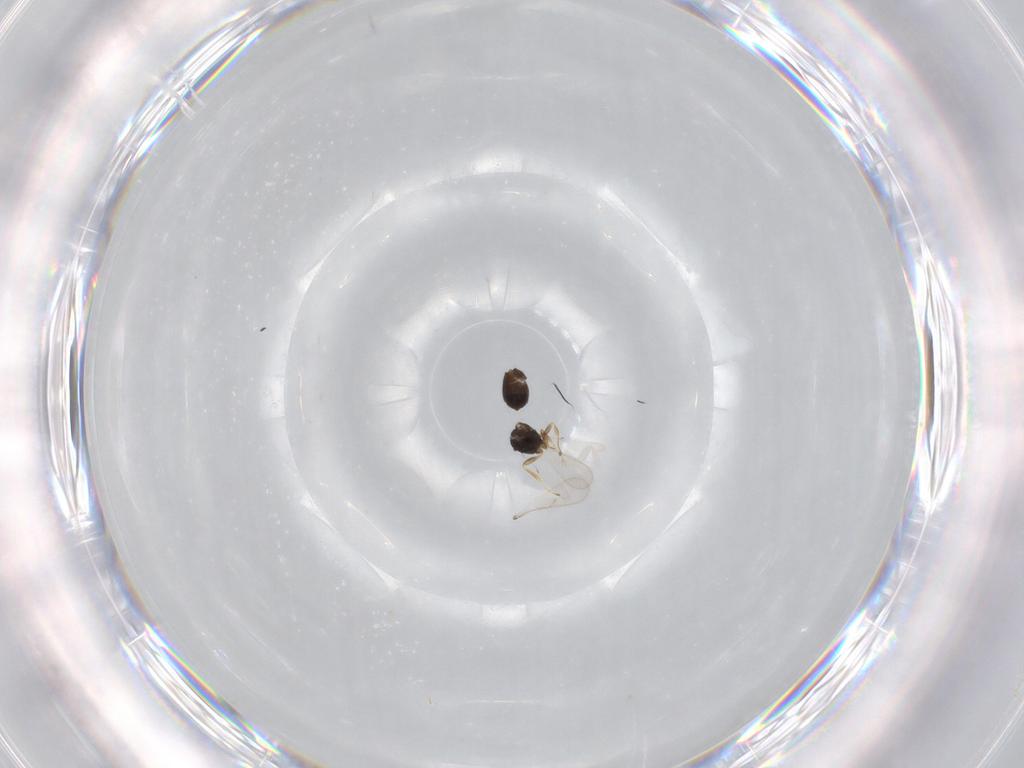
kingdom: Animalia
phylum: Arthropoda
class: Insecta
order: Hymenoptera
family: Scelionidae
